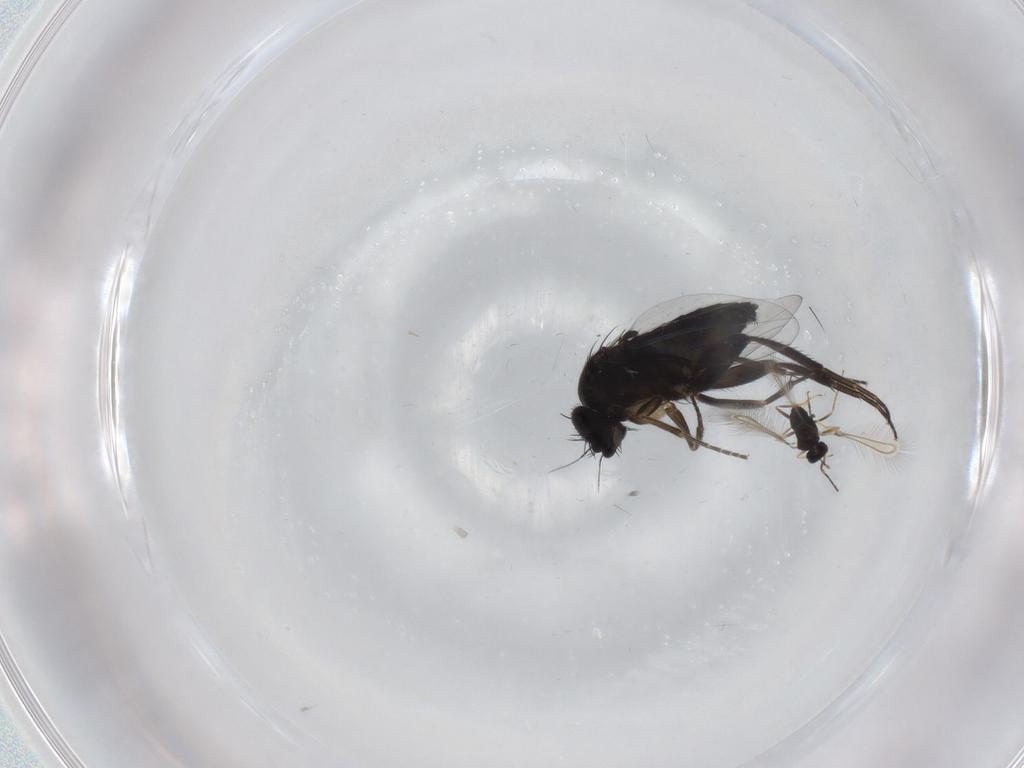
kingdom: Animalia
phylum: Arthropoda
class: Insecta
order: Diptera
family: Phoridae
